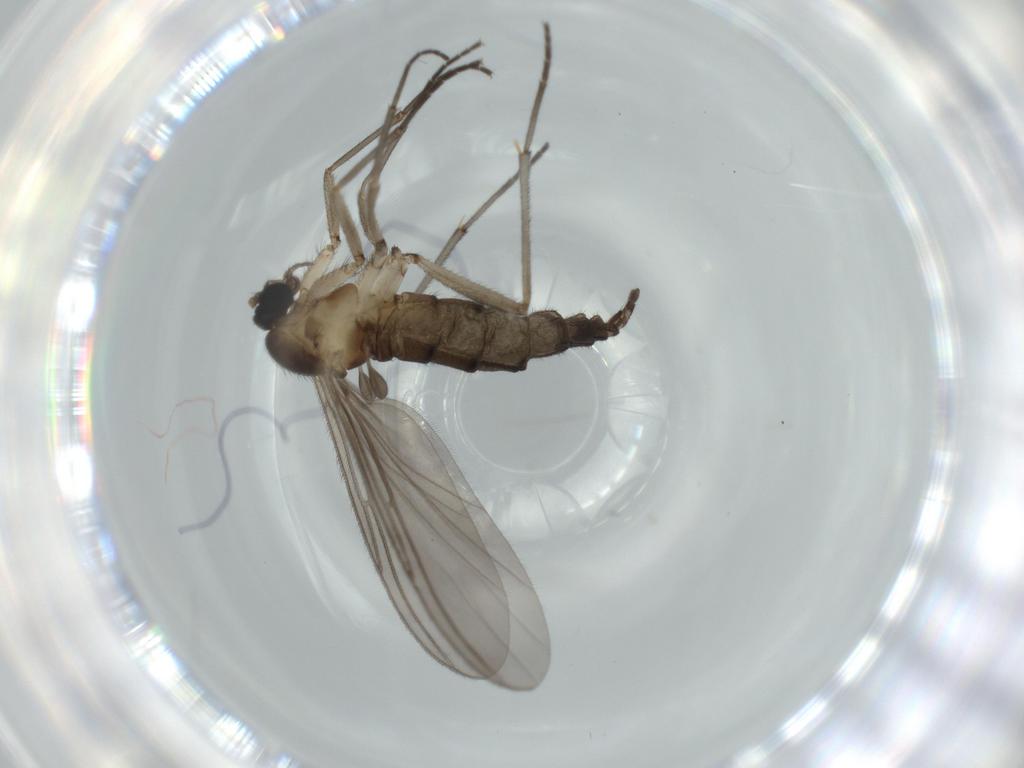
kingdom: Animalia
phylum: Arthropoda
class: Insecta
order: Diptera
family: Sciaridae
